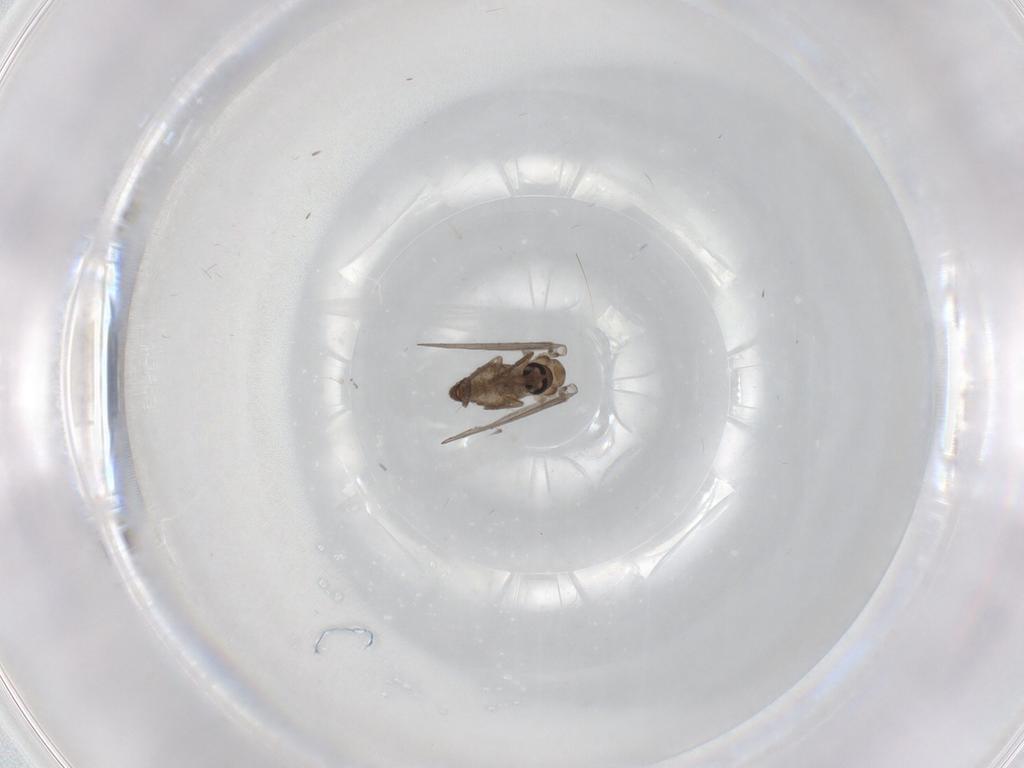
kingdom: Animalia
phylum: Arthropoda
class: Insecta
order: Diptera
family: Psychodidae
